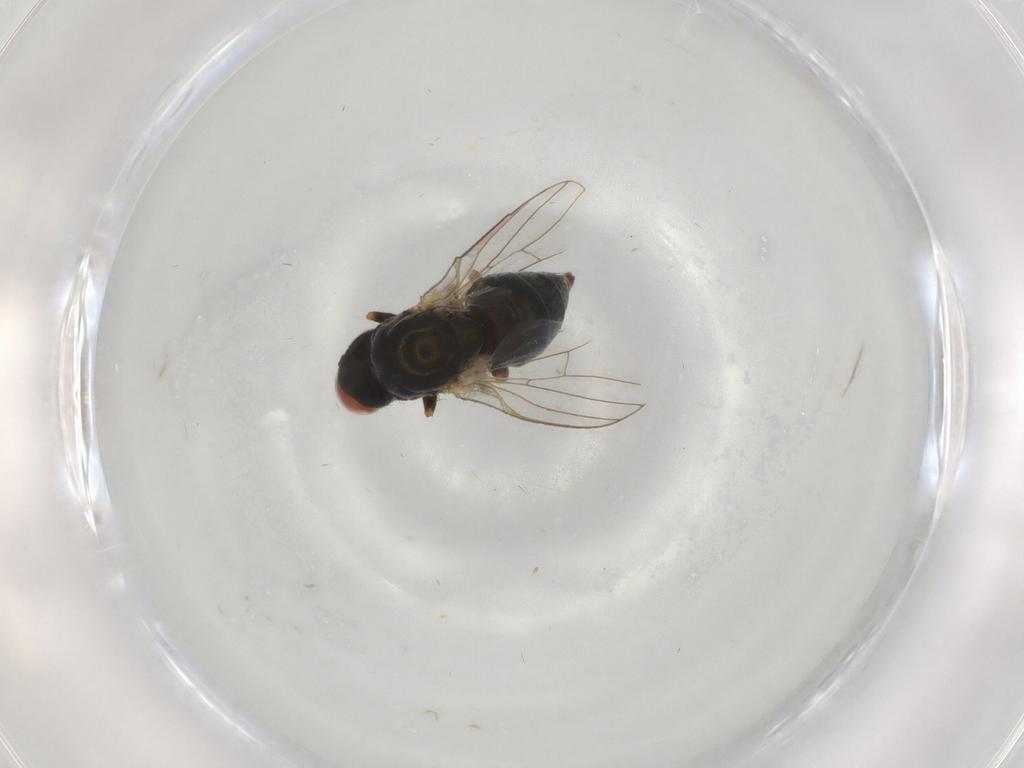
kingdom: Animalia
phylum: Arthropoda
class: Insecta
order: Diptera
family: Chamaemyiidae
